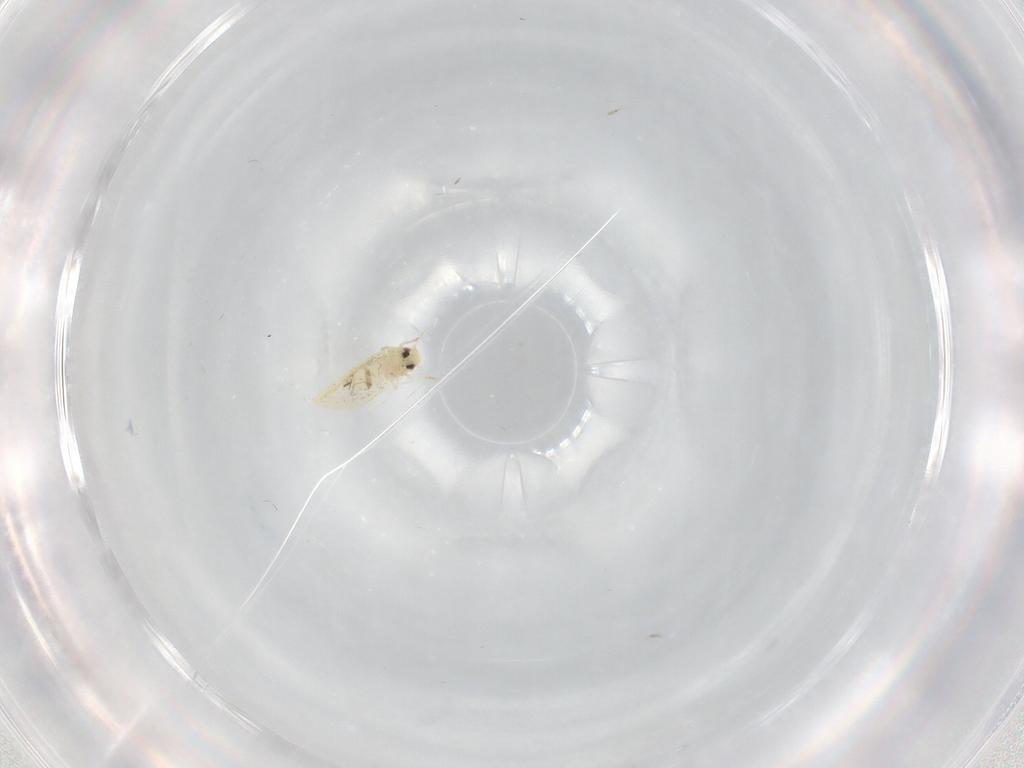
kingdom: Animalia
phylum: Arthropoda
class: Insecta
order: Hemiptera
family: Aleyrodidae
